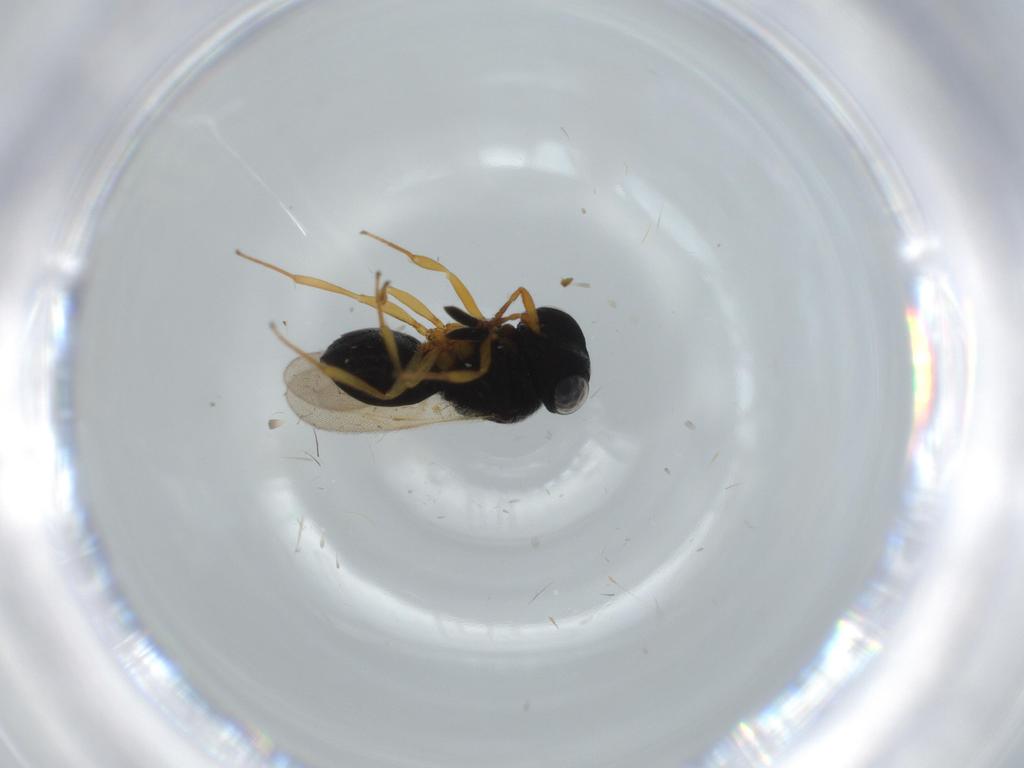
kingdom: Animalia
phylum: Arthropoda
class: Insecta
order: Hymenoptera
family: Scelionidae
